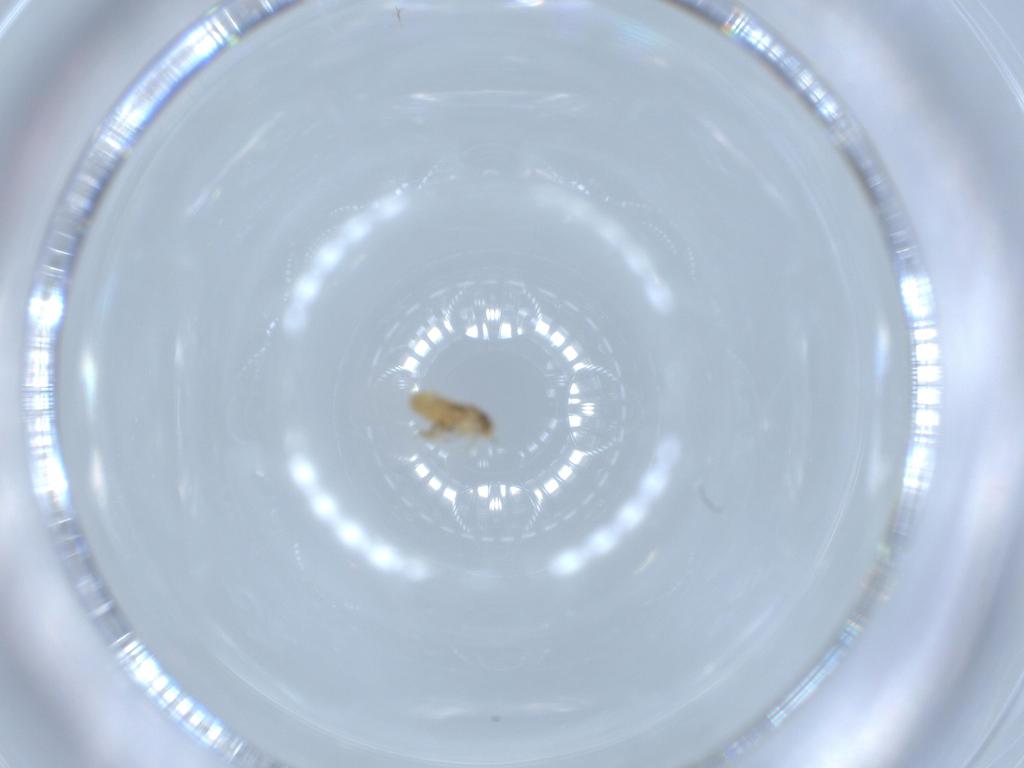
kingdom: Animalia
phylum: Arthropoda
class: Insecta
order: Diptera
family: Phoridae
